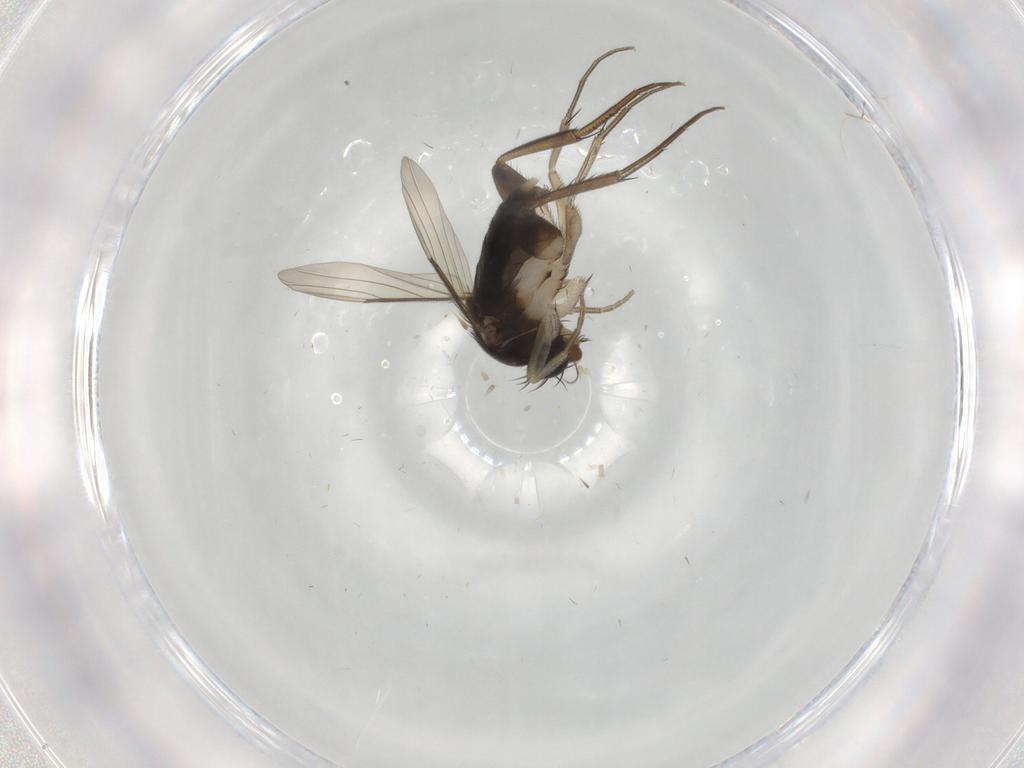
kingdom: Animalia
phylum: Arthropoda
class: Insecta
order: Diptera
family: Phoridae
